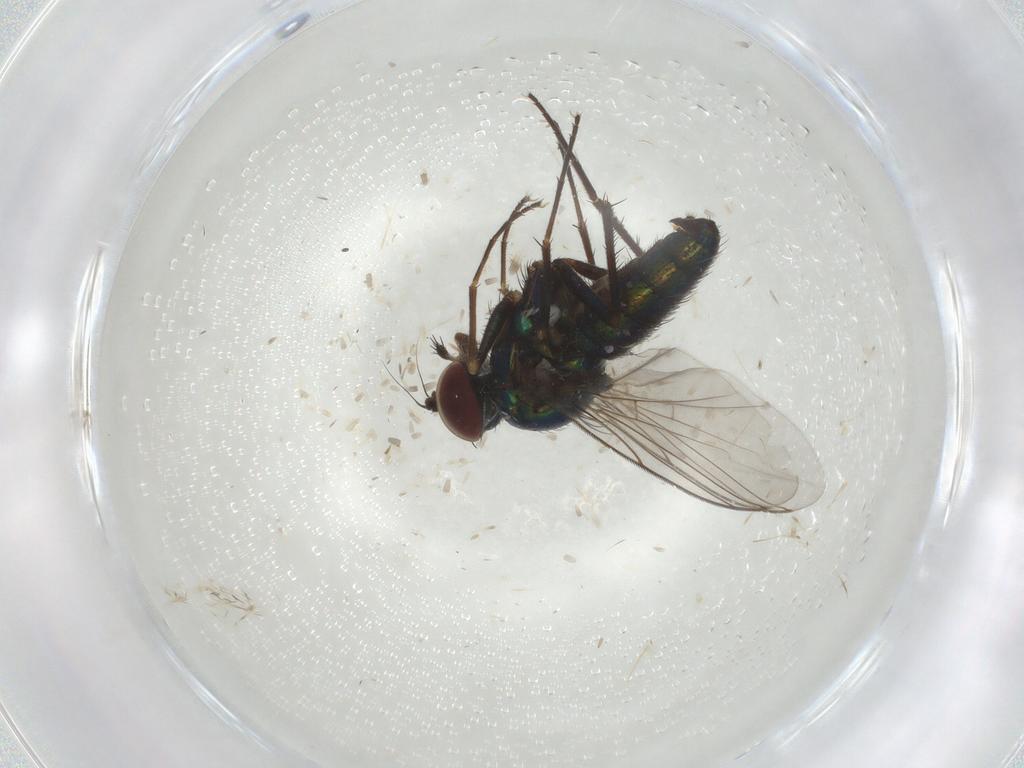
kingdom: Animalia
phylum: Arthropoda
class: Insecta
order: Diptera
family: Dolichopodidae
